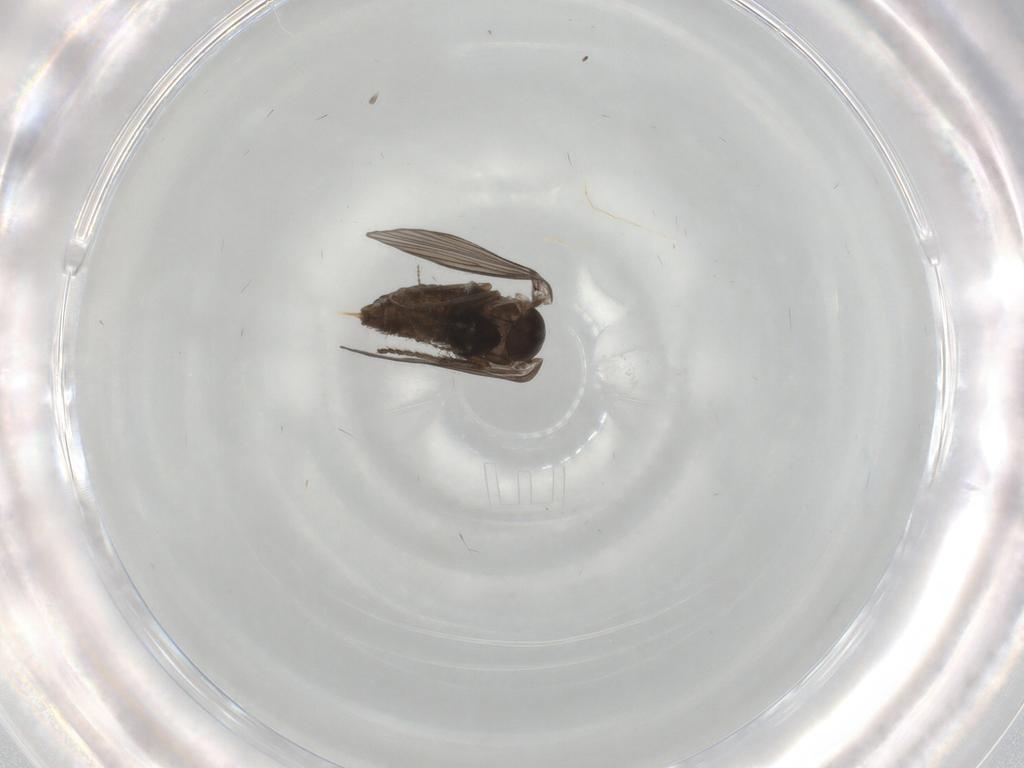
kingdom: Animalia
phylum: Arthropoda
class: Insecta
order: Diptera
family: Psychodidae
